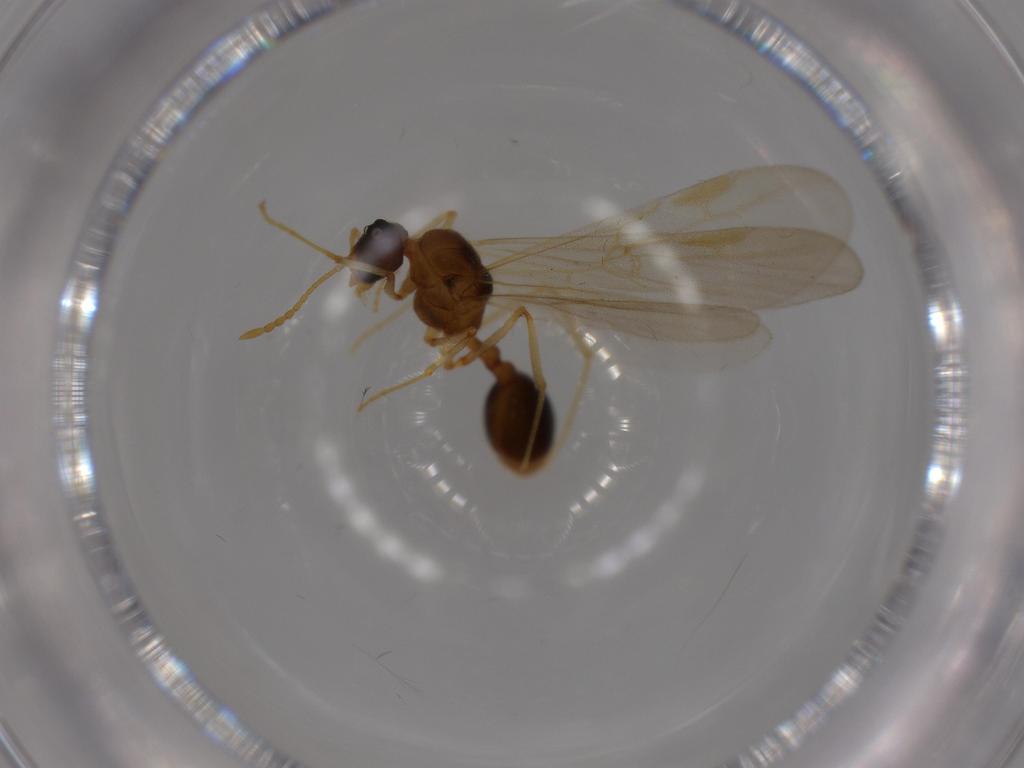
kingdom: Animalia
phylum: Arthropoda
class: Insecta
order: Hymenoptera
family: Formicidae
